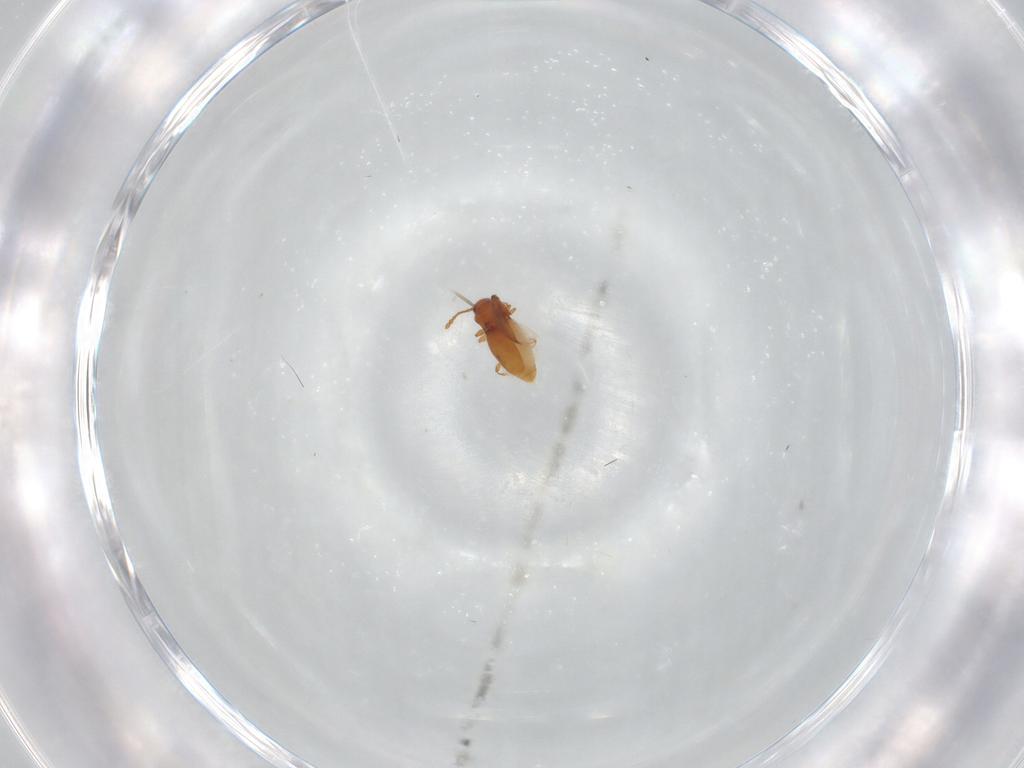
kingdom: Animalia
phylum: Arthropoda
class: Insecta
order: Coleoptera
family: Staphylinidae
